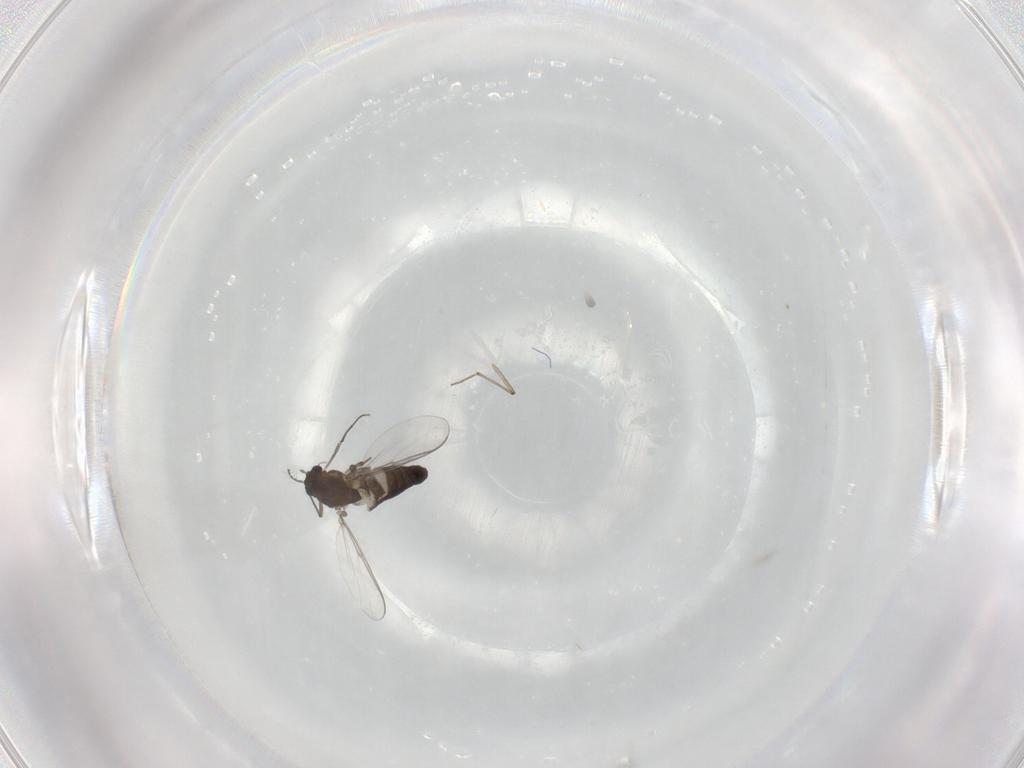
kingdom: Animalia
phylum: Arthropoda
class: Insecta
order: Diptera
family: Chironomidae
